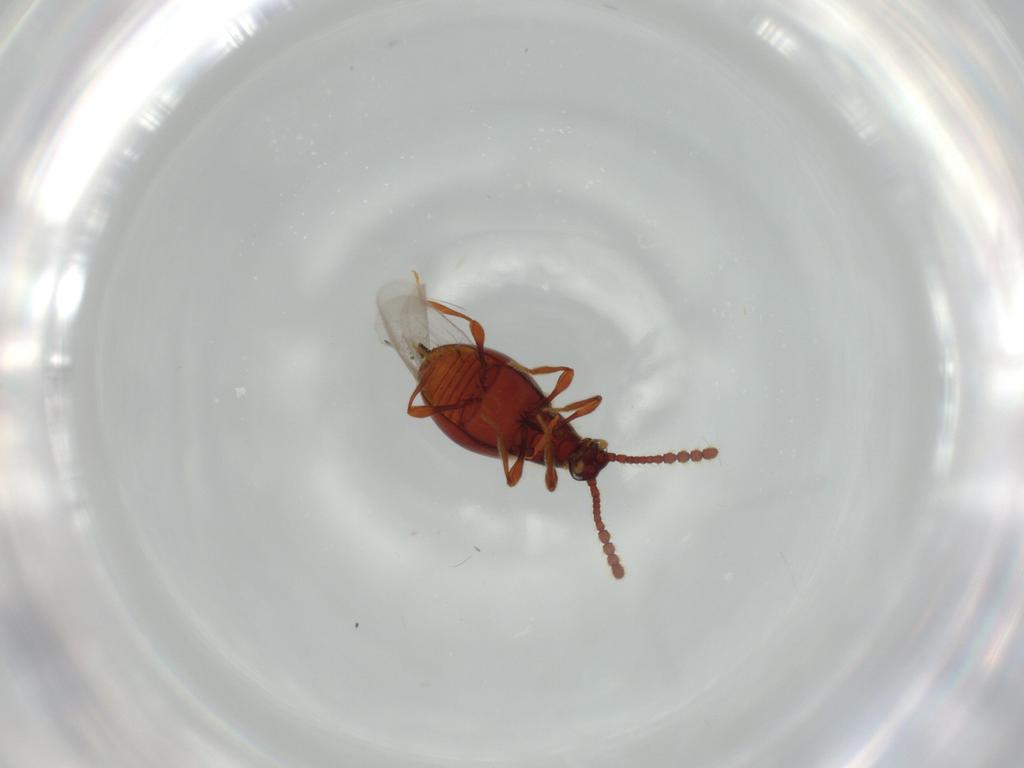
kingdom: Animalia
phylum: Arthropoda
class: Insecta
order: Coleoptera
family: Staphylinidae
